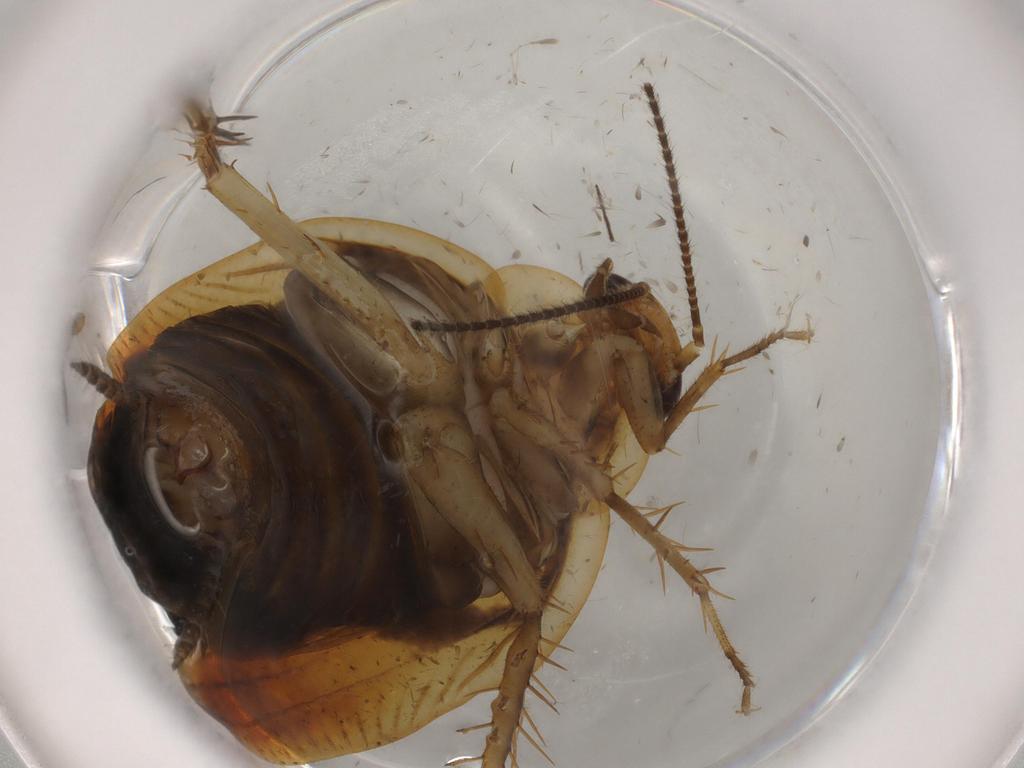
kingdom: Animalia
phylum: Arthropoda
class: Insecta
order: Blattodea
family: Ectobiidae
